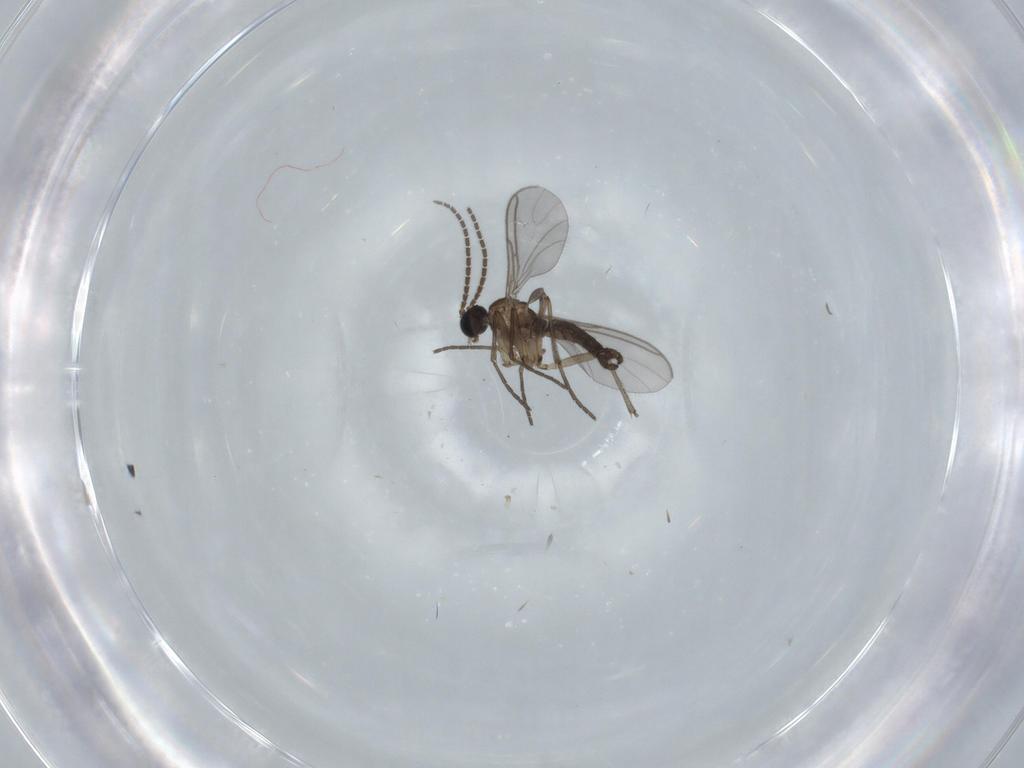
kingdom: Animalia
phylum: Arthropoda
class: Insecta
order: Diptera
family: Sciaridae
